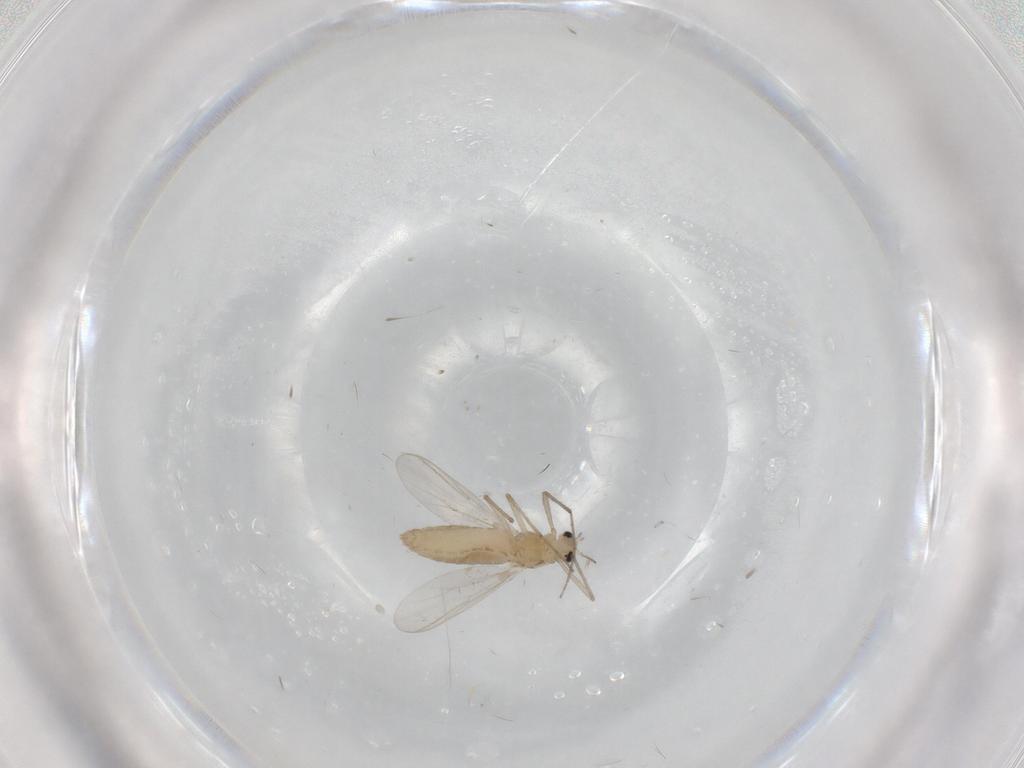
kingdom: Animalia
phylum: Arthropoda
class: Insecta
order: Diptera
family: Chironomidae
